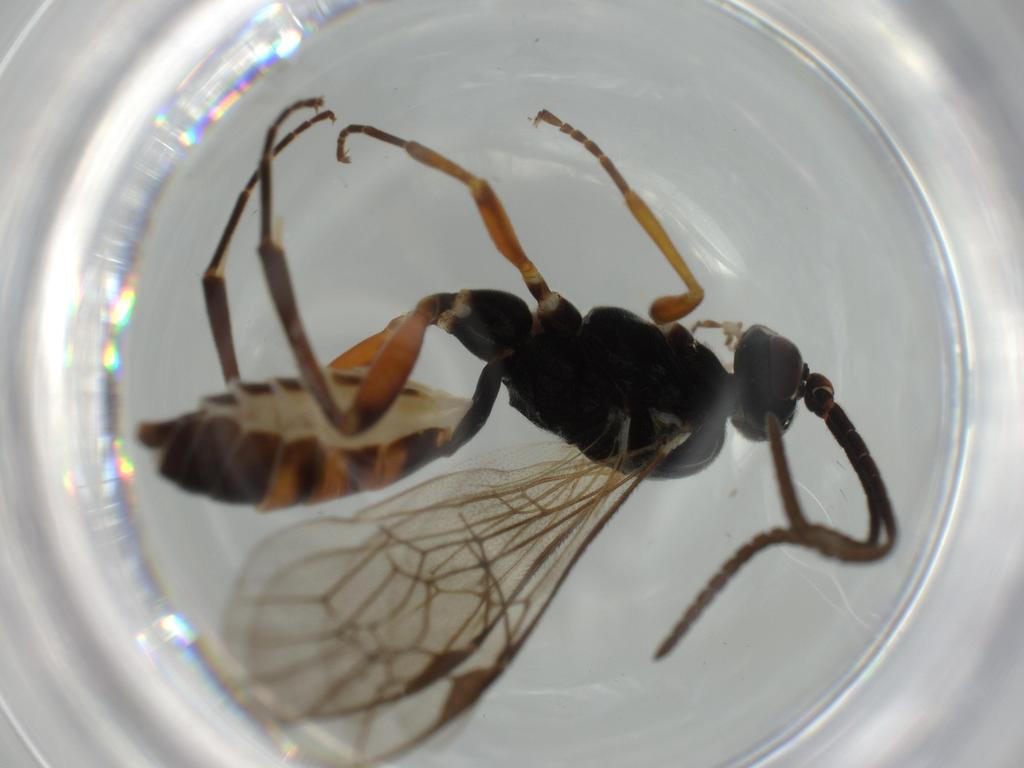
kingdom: Animalia
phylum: Arthropoda
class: Insecta
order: Hymenoptera
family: Ichneumonidae
